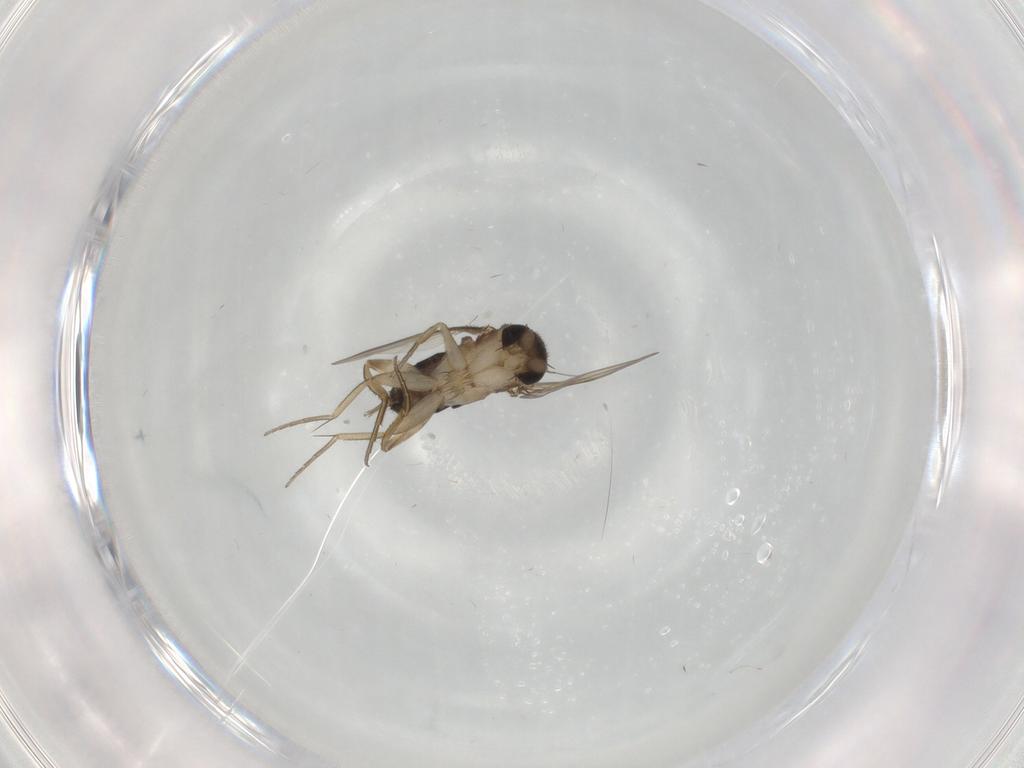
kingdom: Animalia
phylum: Arthropoda
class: Insecta
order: Diptera
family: Phoridae
